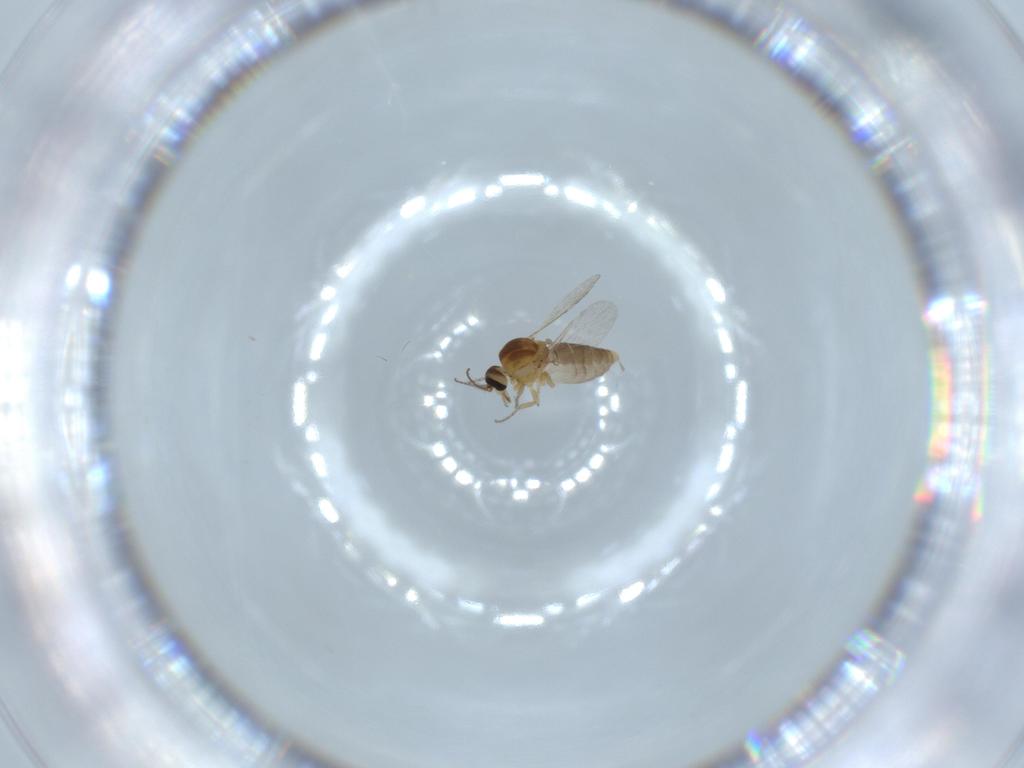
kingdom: Animalia
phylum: Arthropoda
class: Insecta
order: Diptera
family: Ceratopogonidae
